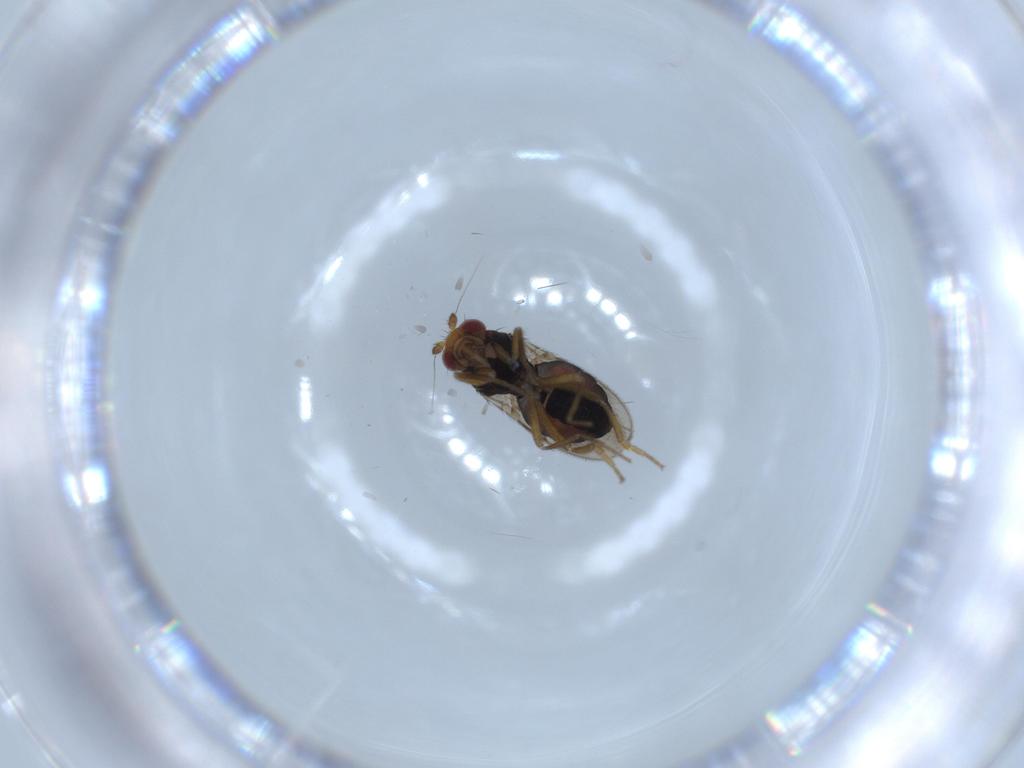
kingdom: Animalia
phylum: Arthropoda
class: Insecta
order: Diptera
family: Sphaeroceridae
